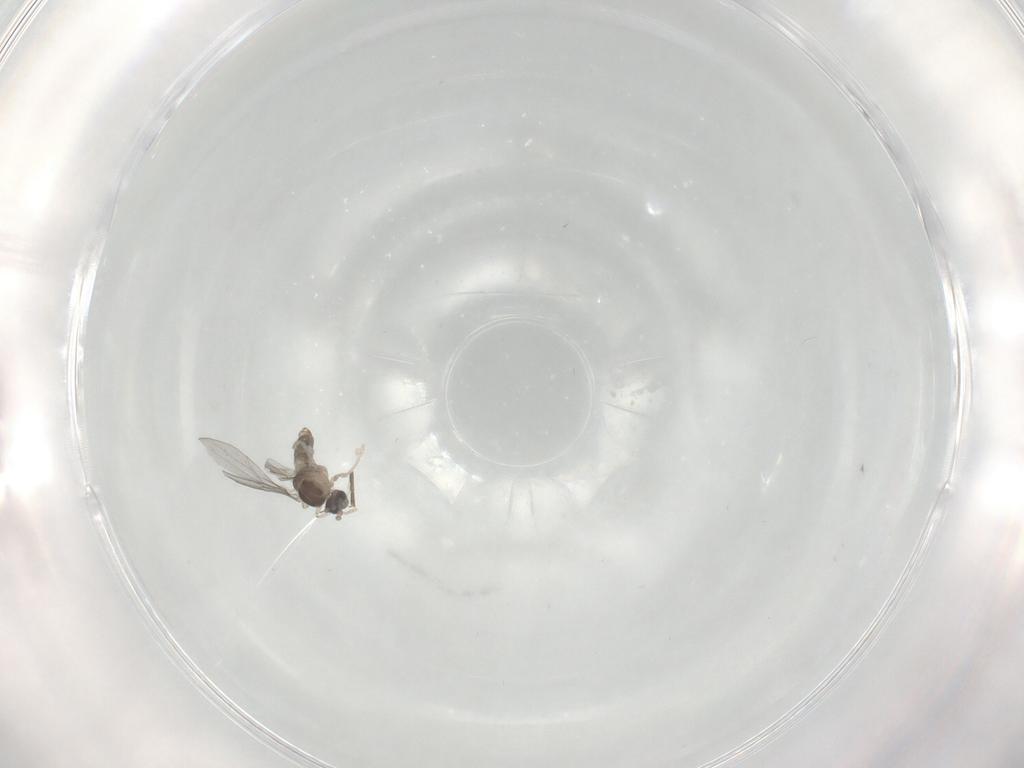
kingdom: Animalia
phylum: Arthropoda
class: Insecta
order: Diptera
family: Cecidomyiidae
